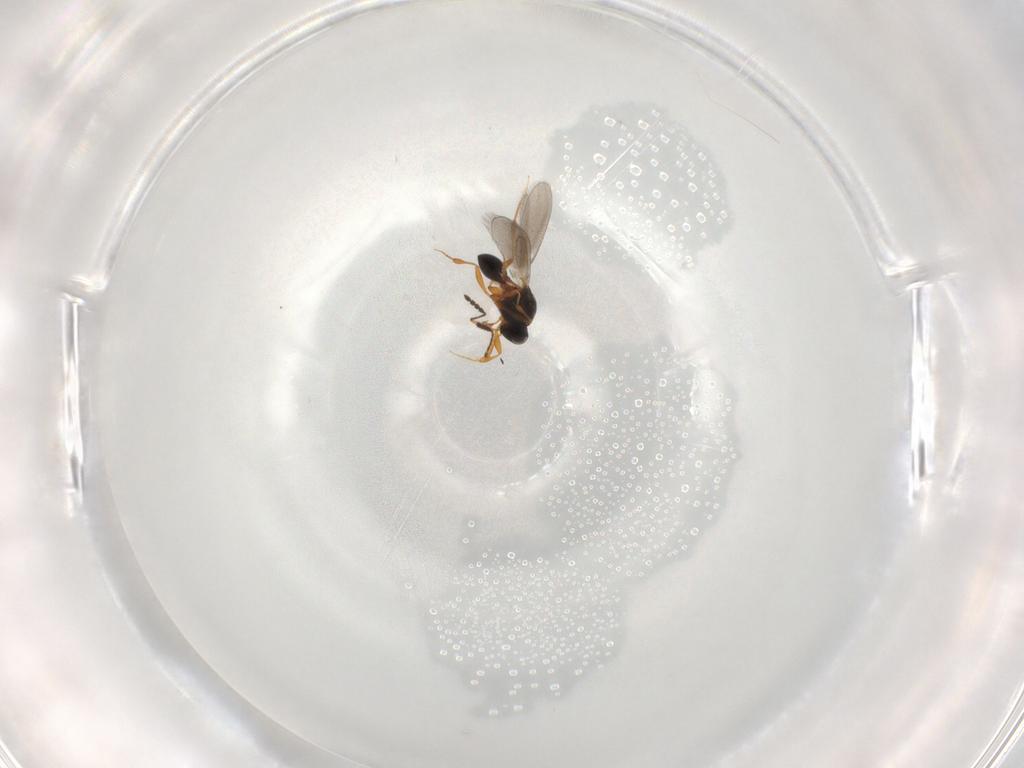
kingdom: Animalia
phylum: Arthropoda
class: Insecta
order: Hymenoptera
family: Platygastridae
